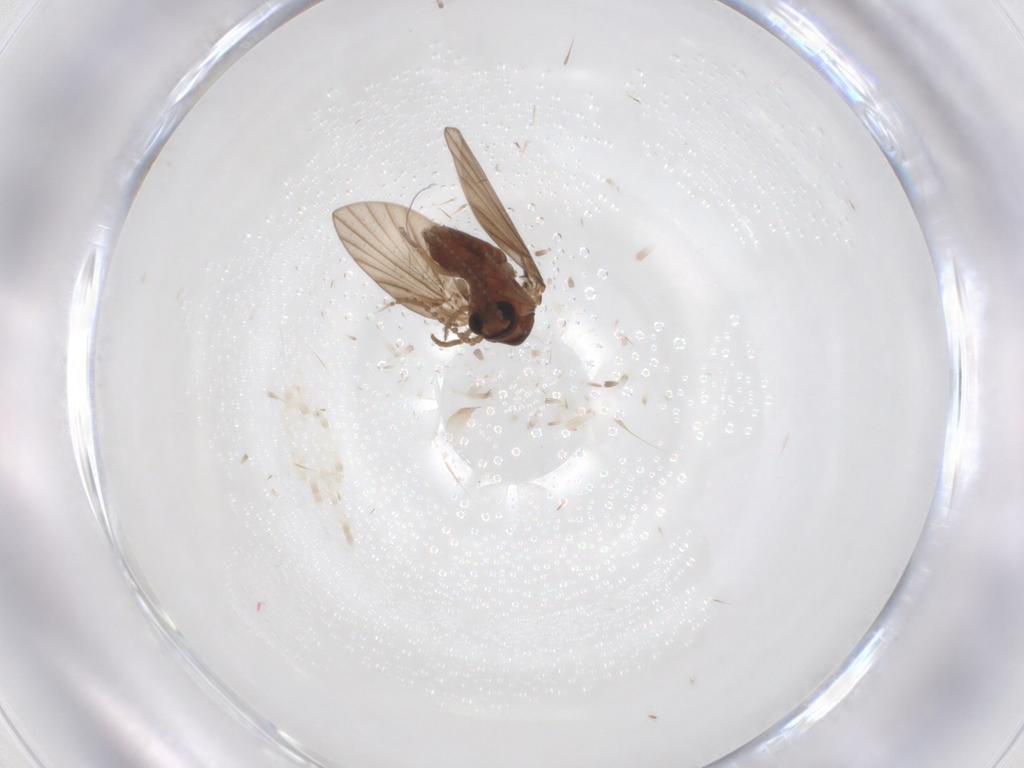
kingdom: Animalia
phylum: Arthropoda
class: Insecta
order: Diptera
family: Psychodidae
